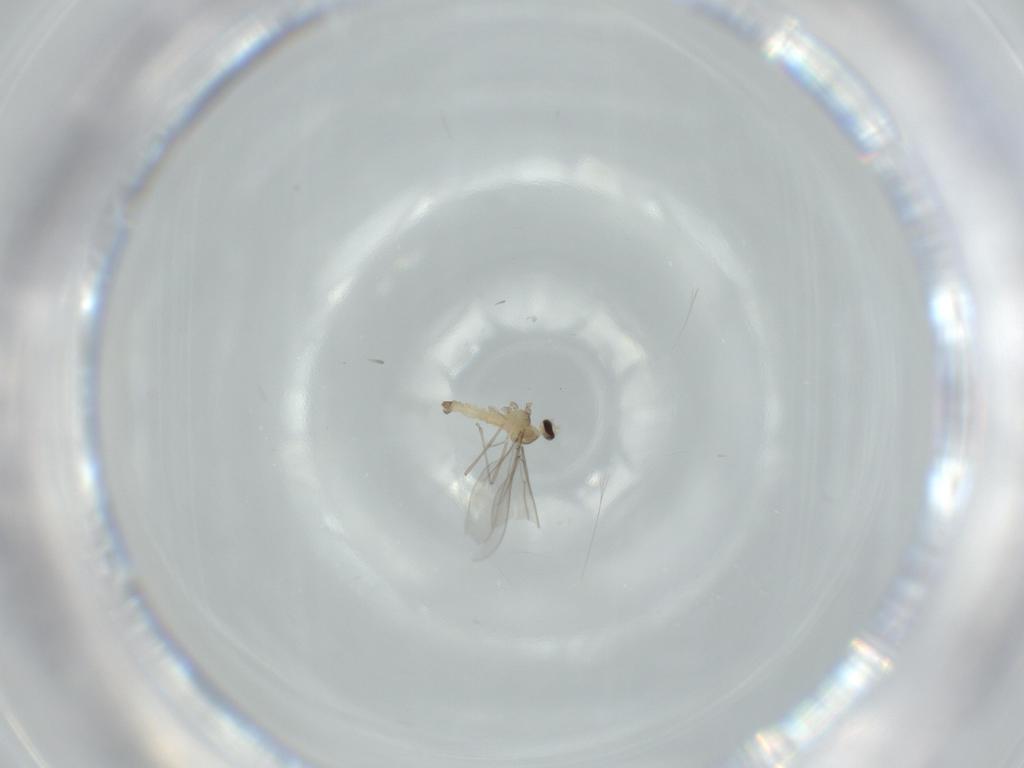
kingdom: Animalia
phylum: Arthropoda
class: Insecta
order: Diptera
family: Cecidomyiidae
